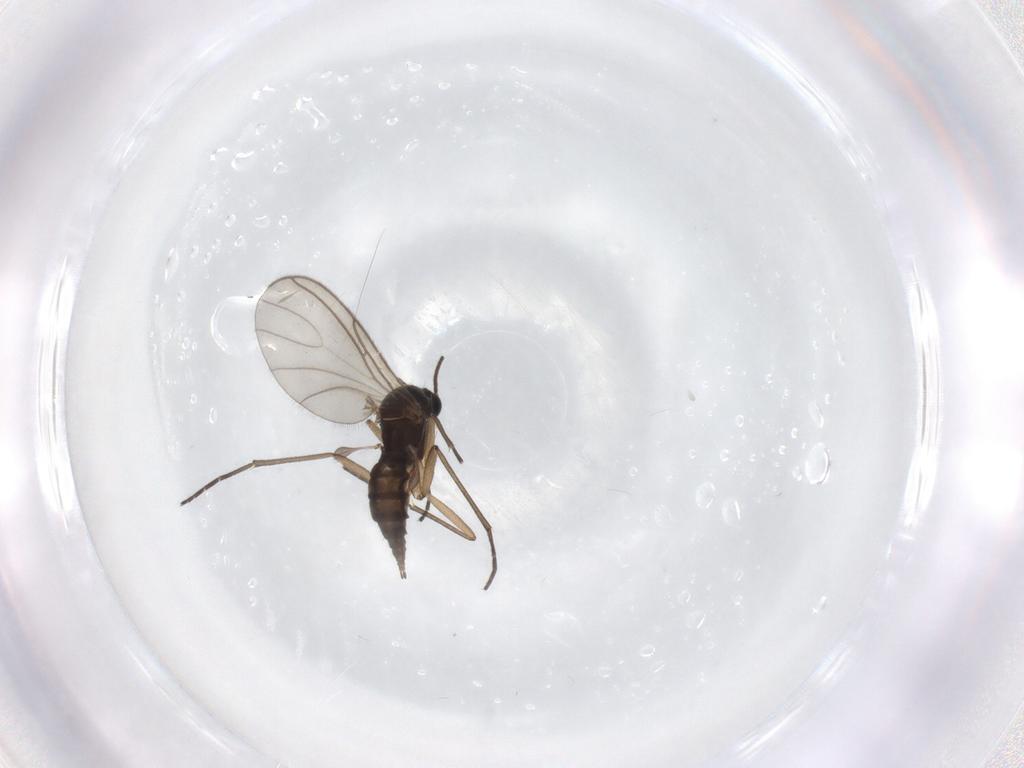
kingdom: Animalia
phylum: Arthropoda
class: Insecta
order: Diptera
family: Sciaridae
